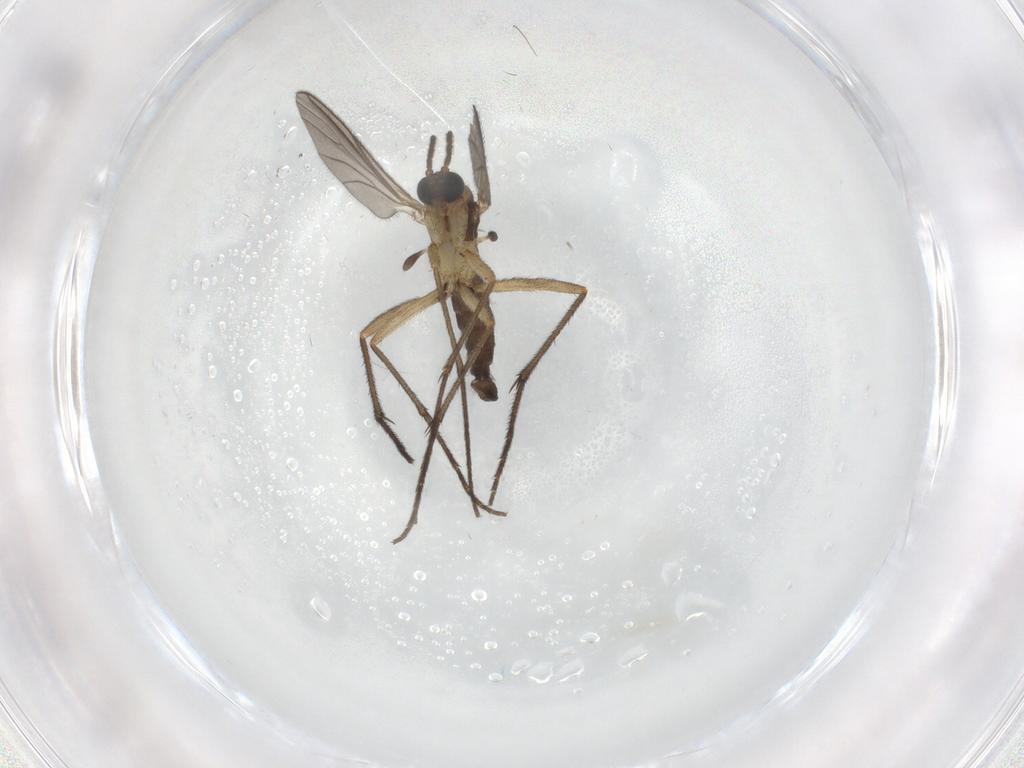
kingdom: Animalia
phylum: Arthropoda
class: Insecta
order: Diptera
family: Sciaridae
